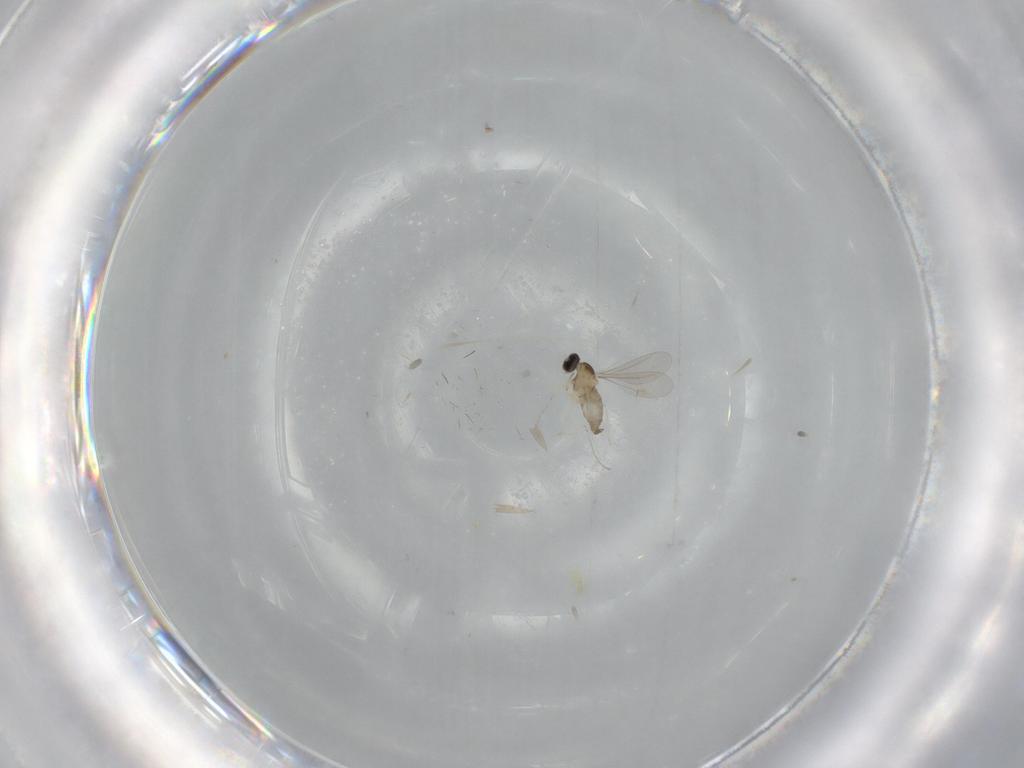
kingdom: Animalia
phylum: Arthropoda
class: Insecta
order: Diptera
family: Cecidomyiidae
